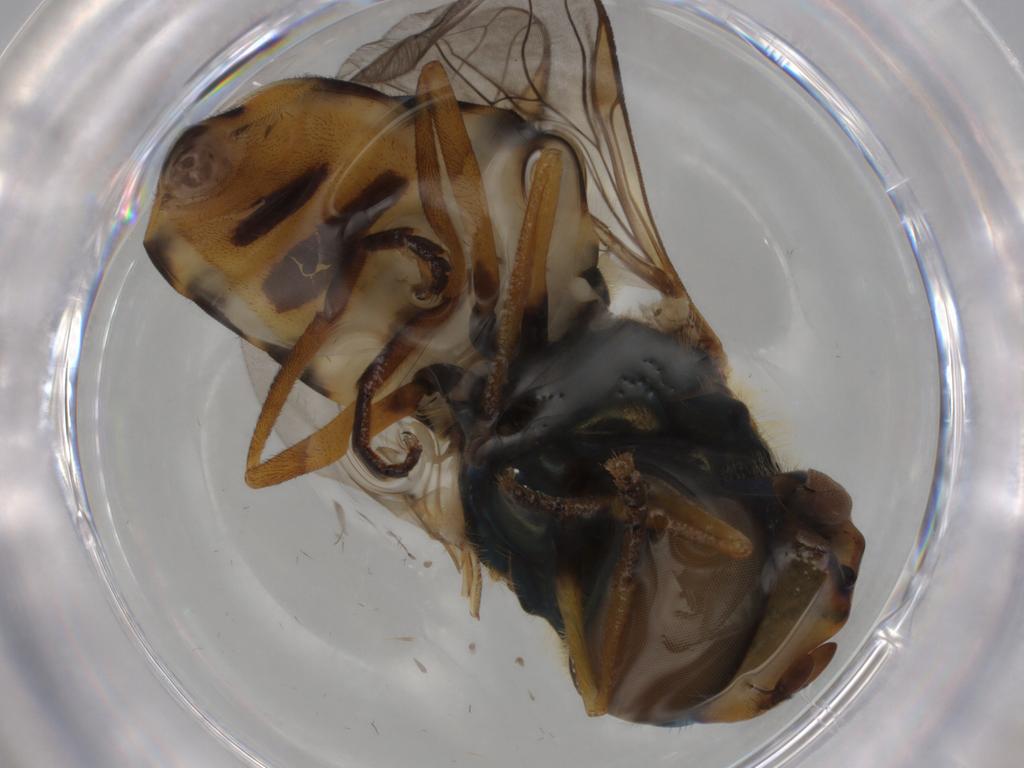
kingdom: Animalia
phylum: Arthropoda
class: Insecta
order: Diptera
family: Syrphidae
